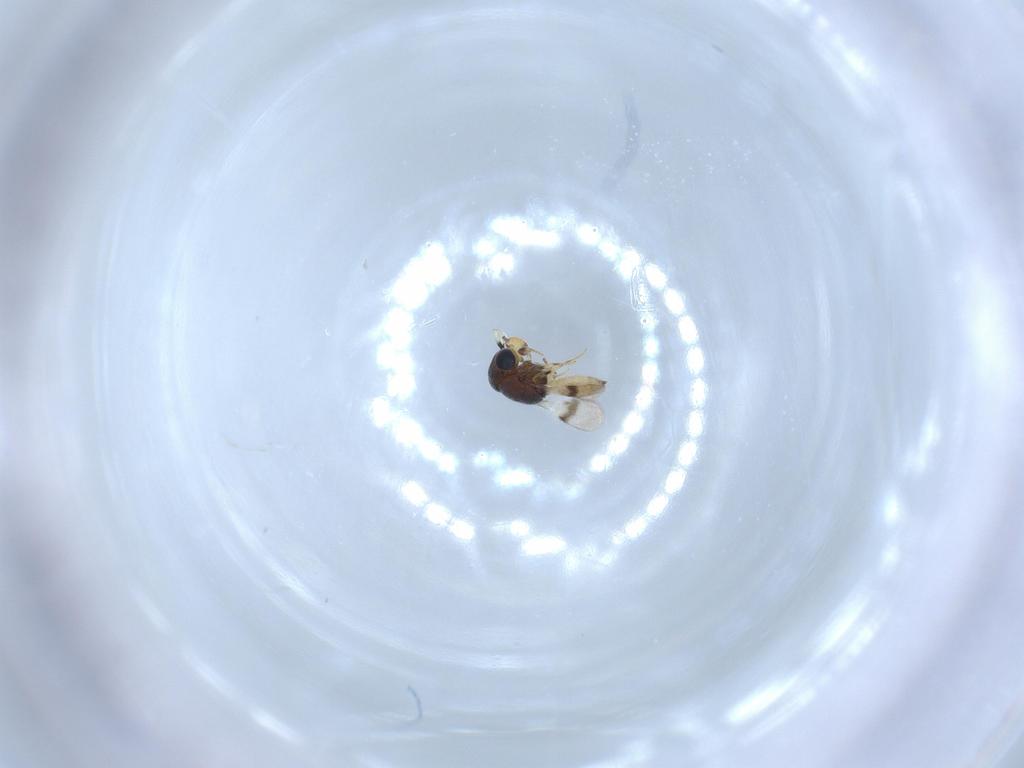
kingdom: Animalia
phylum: Arthropoda
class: Insecta
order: Hymenoptera
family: Scelionidae
